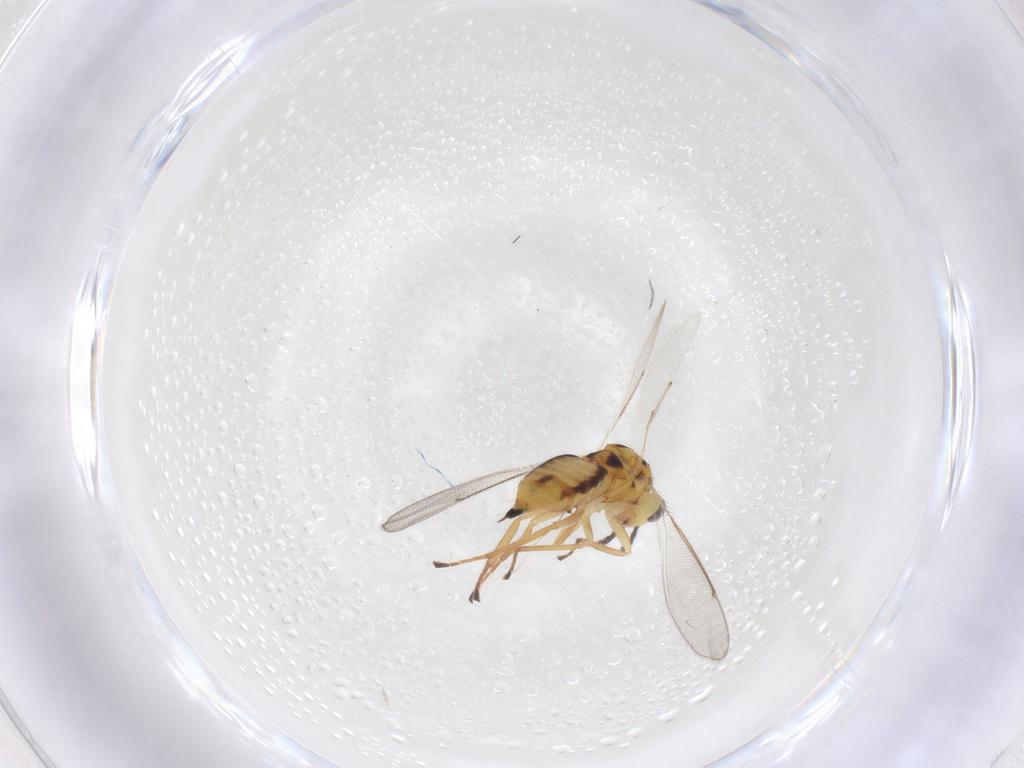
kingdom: Animalia
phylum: Arthropoda
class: Insecta
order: Hymenoptera
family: Eulophidae
